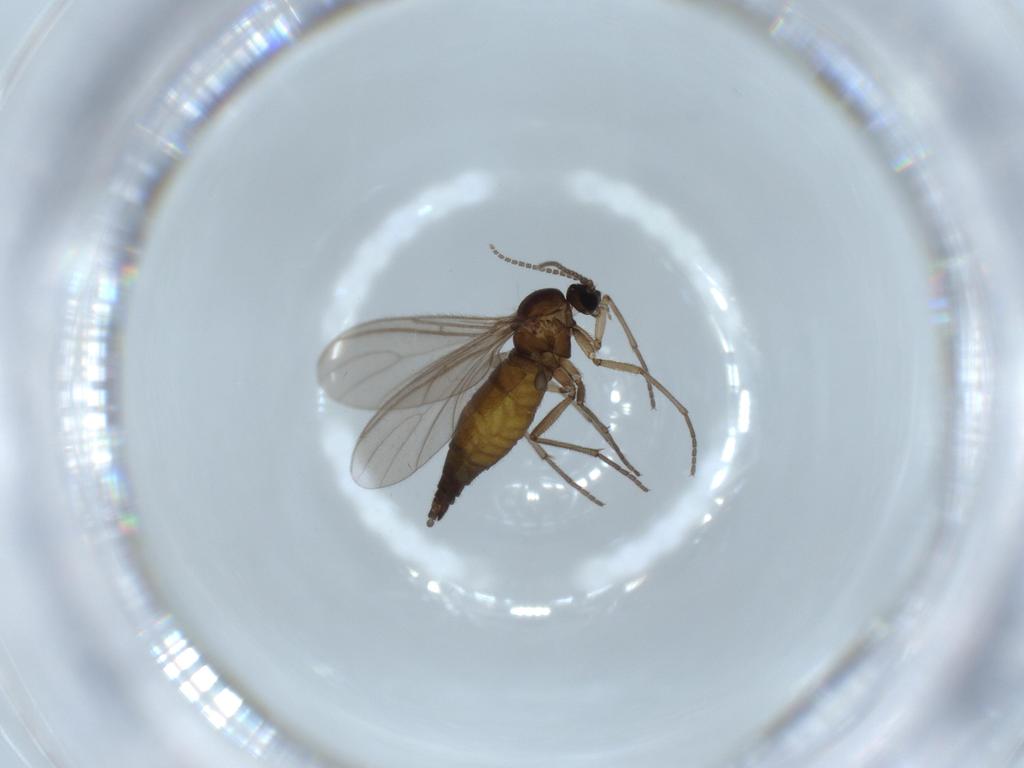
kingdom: Animalia
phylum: Arthropoda
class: Insecta
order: Diptera
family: Sciaridae
